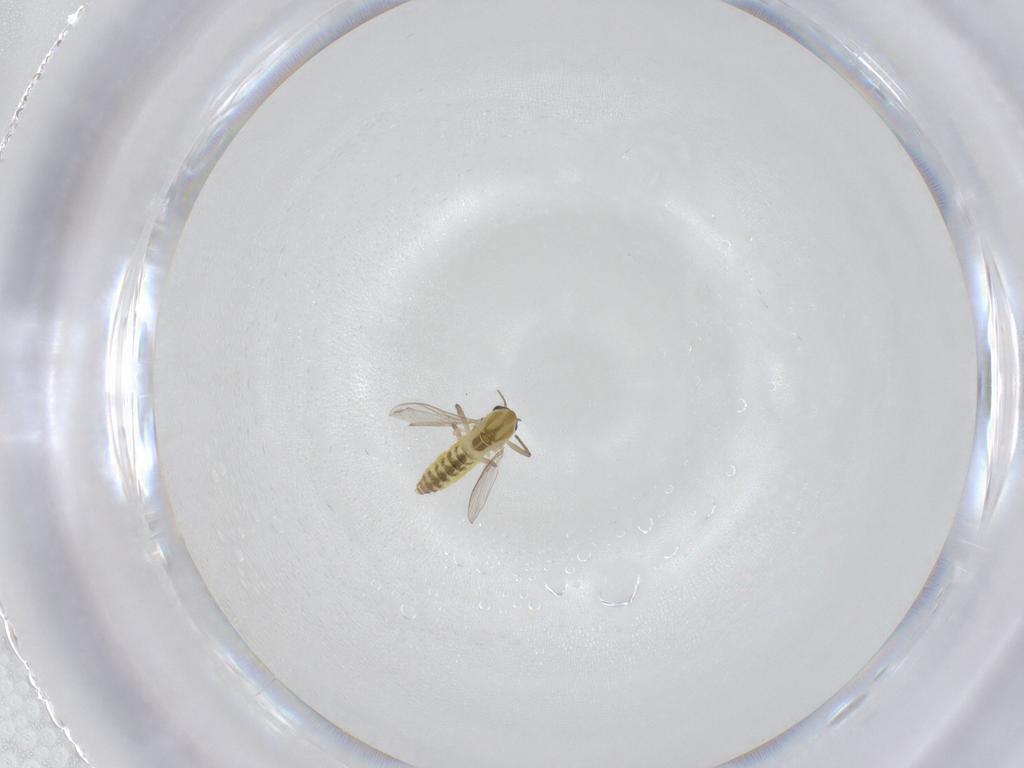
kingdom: Animalia
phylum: Arthropoda
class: Insecta
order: Diptera
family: Chironomidae
